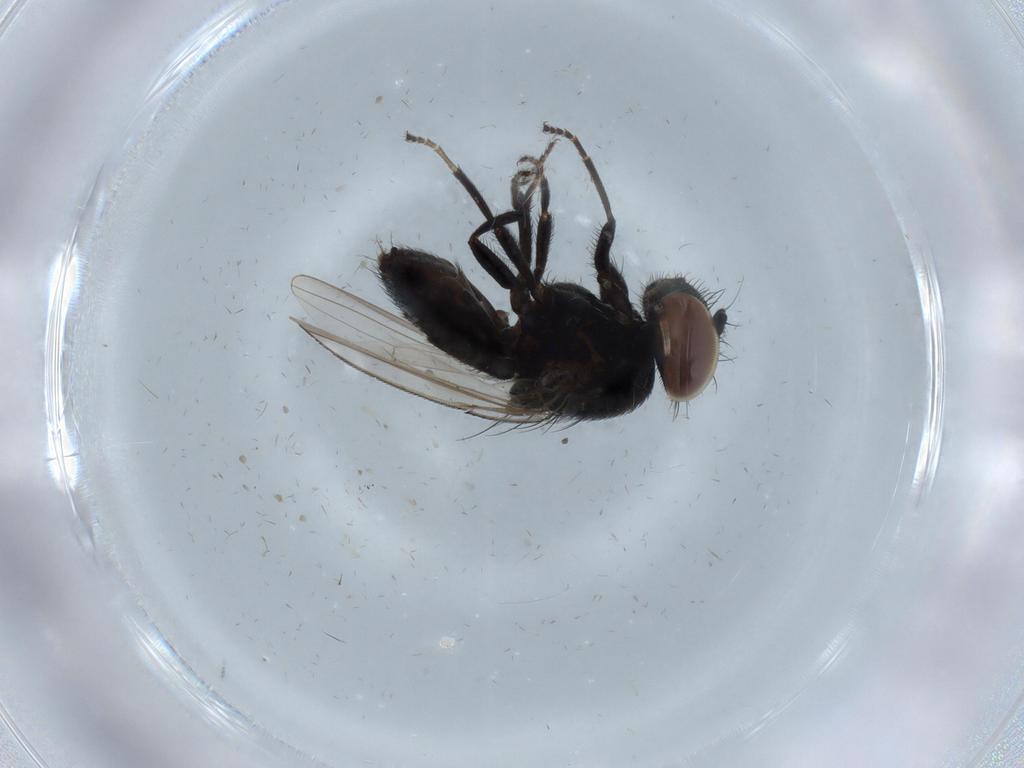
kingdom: Animalia
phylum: Arthropoda
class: Insecta
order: Diptera
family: Milichiidae
